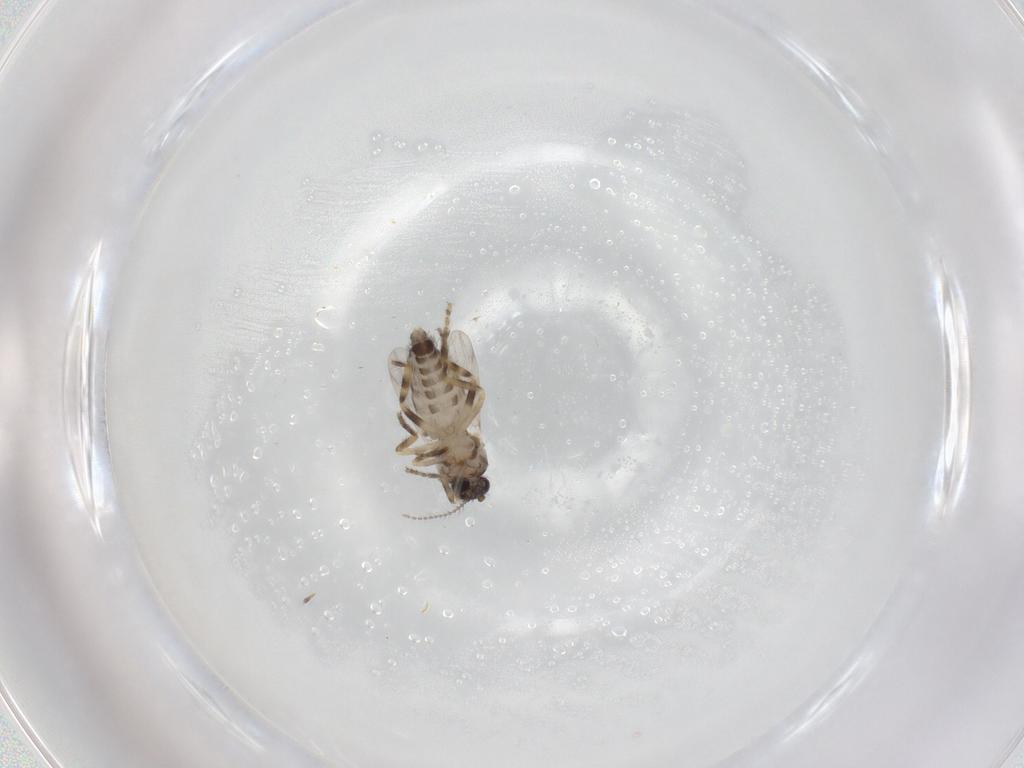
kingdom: Animalia
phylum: Arthropoda
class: Insecta
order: Diptera
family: Ceratopogonidae
